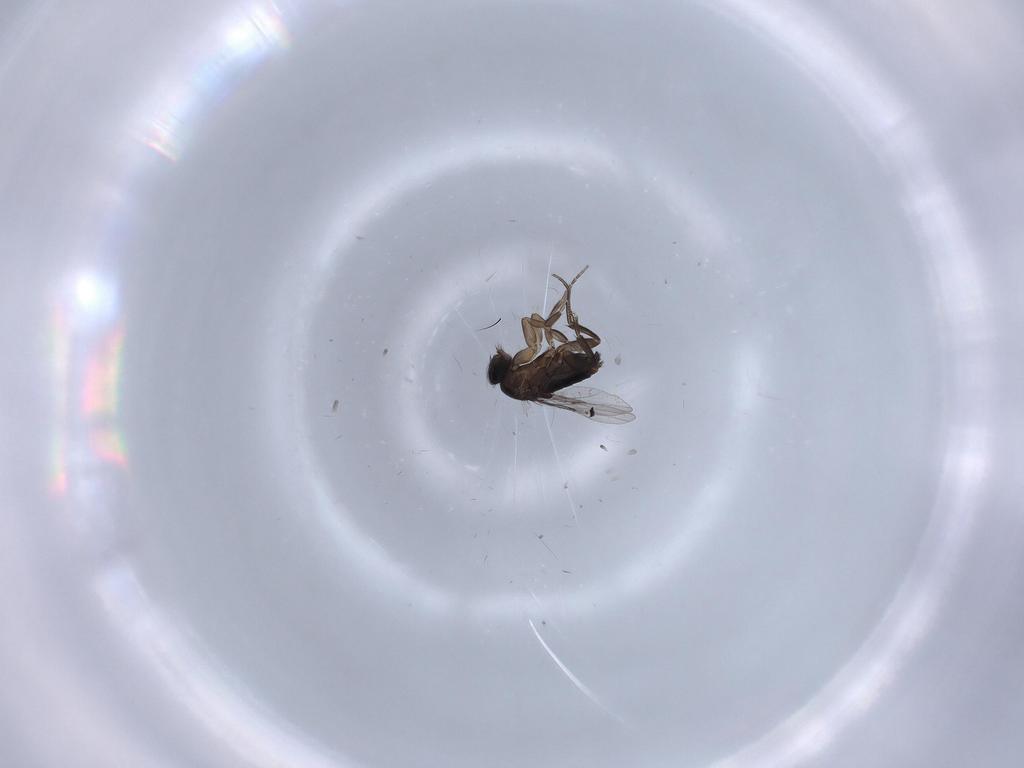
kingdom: Animalia
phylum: Arthropoda
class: Insecta
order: Diptera
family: Phoridae
